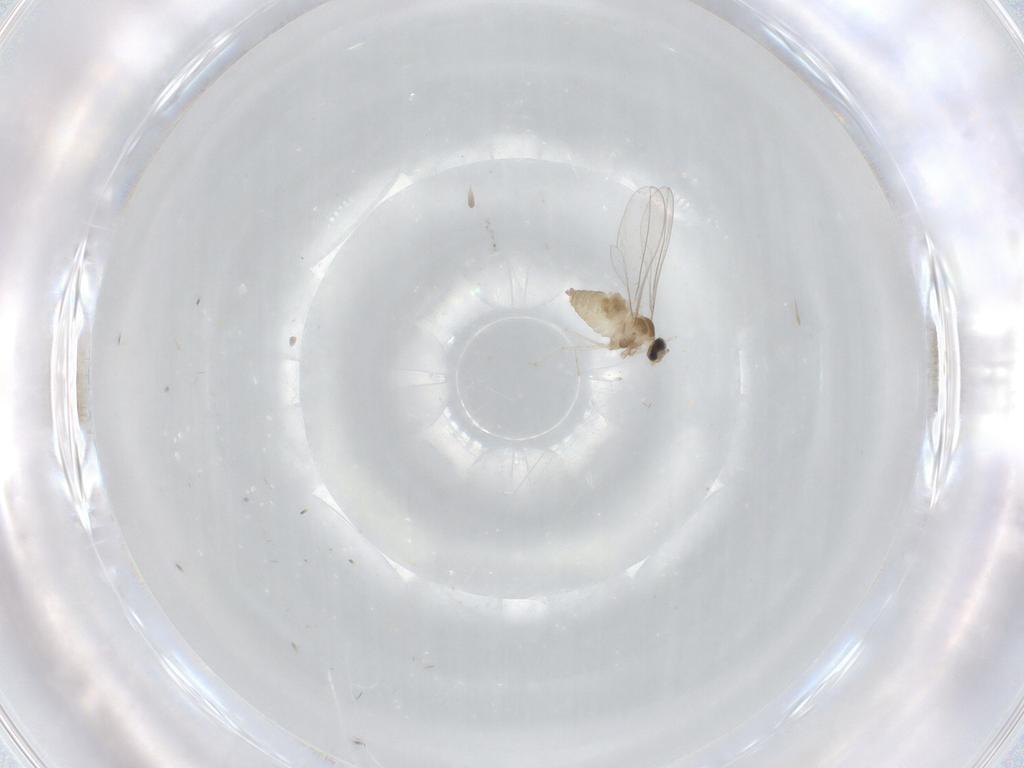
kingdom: Animalia
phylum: Arthropoda
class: Insecta
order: Diptera
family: Cecidomyiidae
